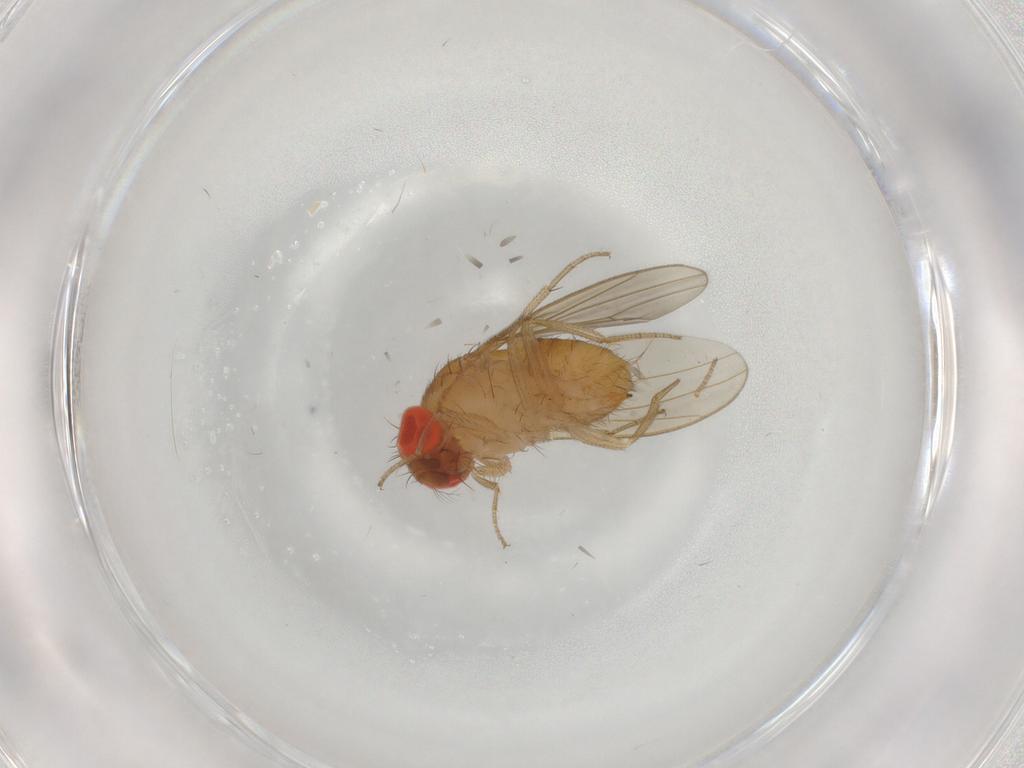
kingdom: Animalia
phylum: Arthropoda
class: Insecta
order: Diptera
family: Drosophilidae
